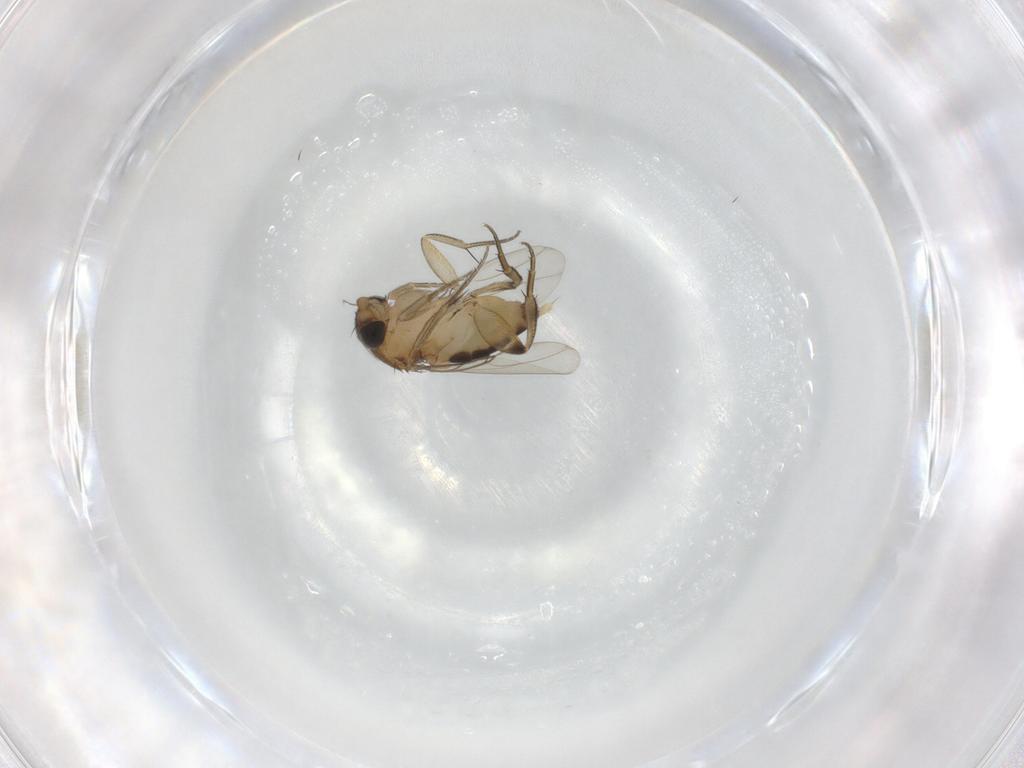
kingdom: Animalia
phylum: Arthropoda
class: Insecta
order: Diptera
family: Phoridae
